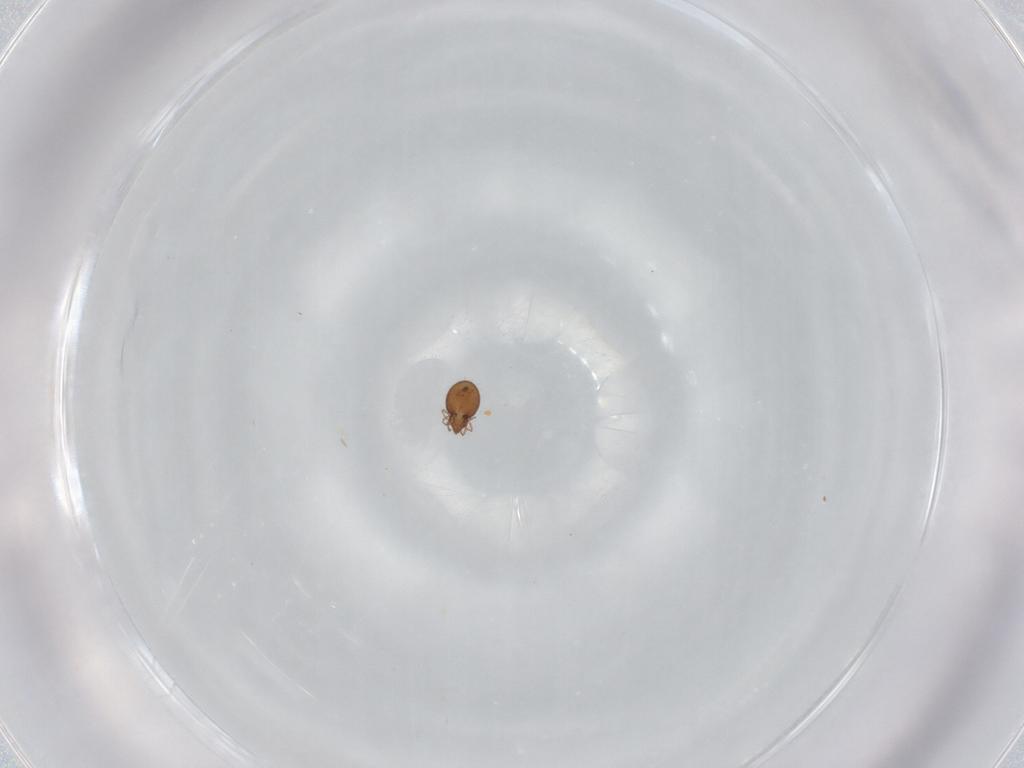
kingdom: Animalia
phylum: Arthropoda
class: Arachnida
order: Sarcoptiformes
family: Oribatulidae
